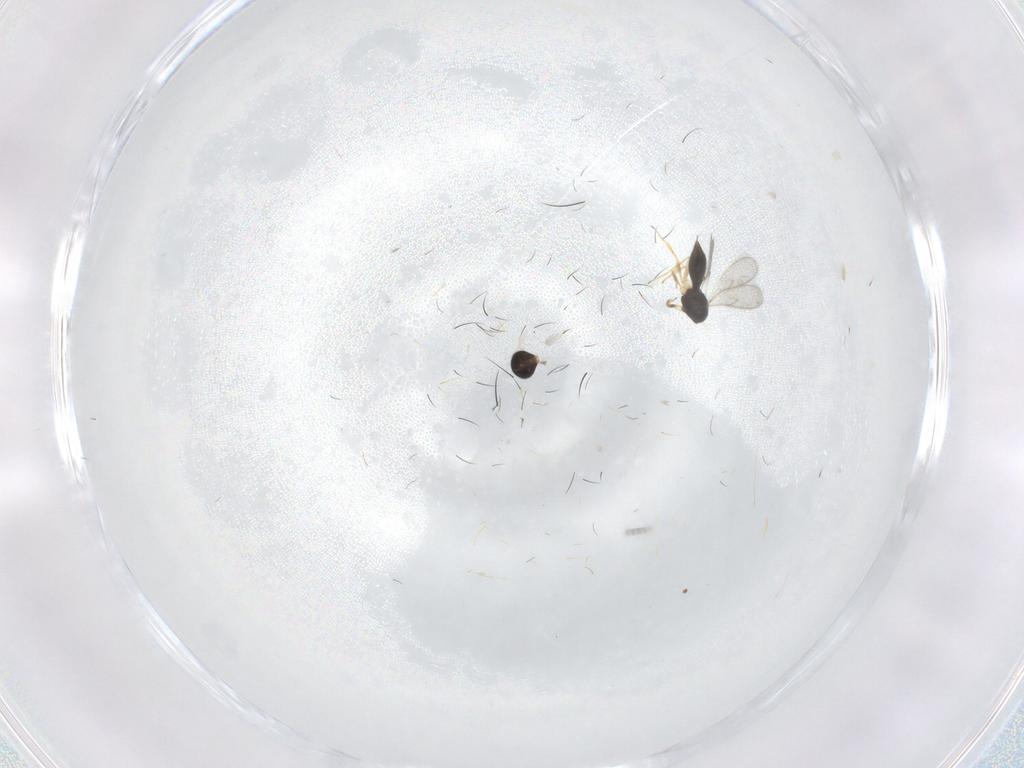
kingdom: Animalia
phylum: Arthropoda
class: Insecta
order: Hymenoptera
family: Scelionidae
